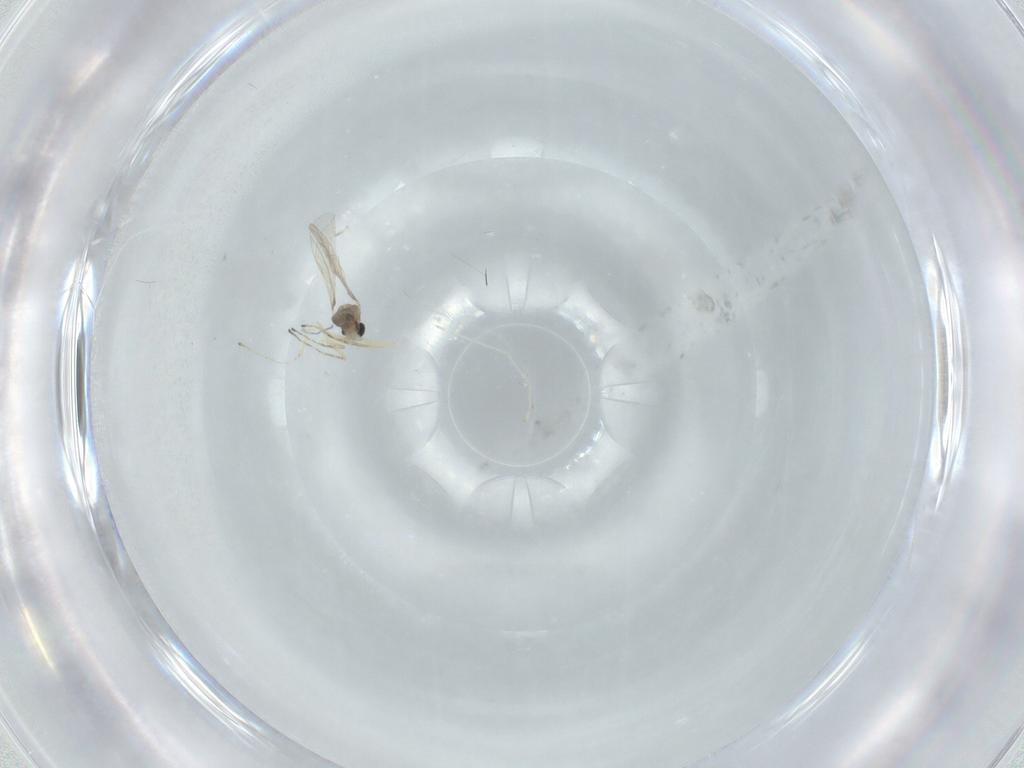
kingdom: Animalia
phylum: Arthropoda
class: Insecta
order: Diptera
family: Cecidomyiidae
